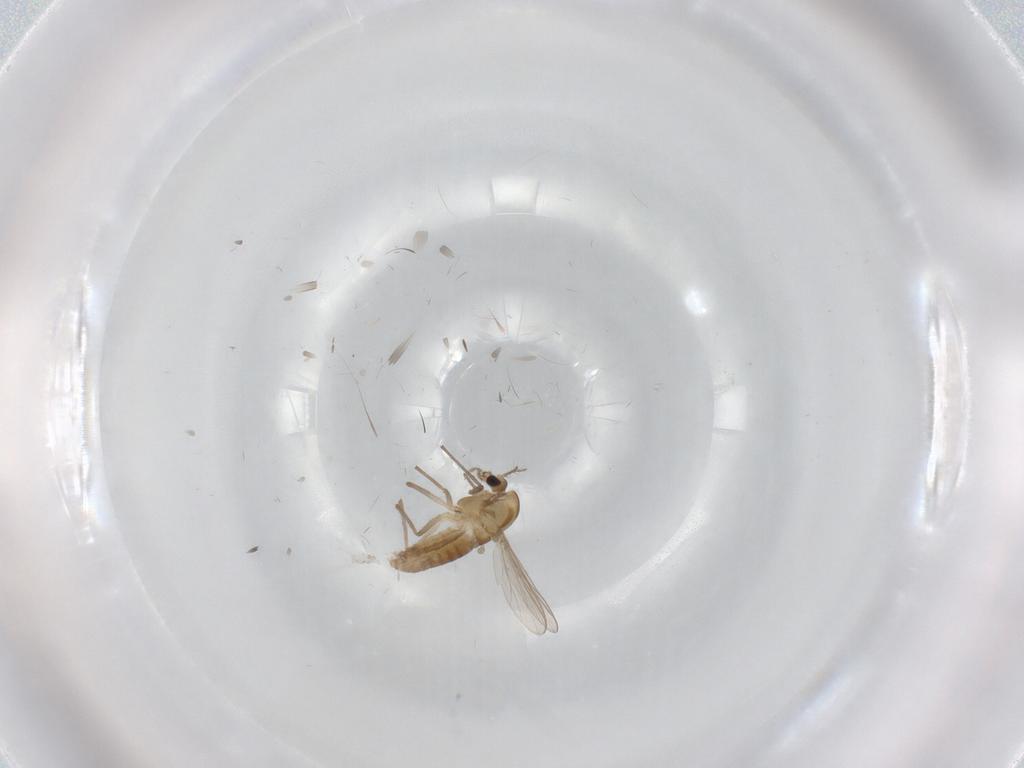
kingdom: Animalia
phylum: Arthropoda
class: Insecta
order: Diptera
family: Chironomidae
